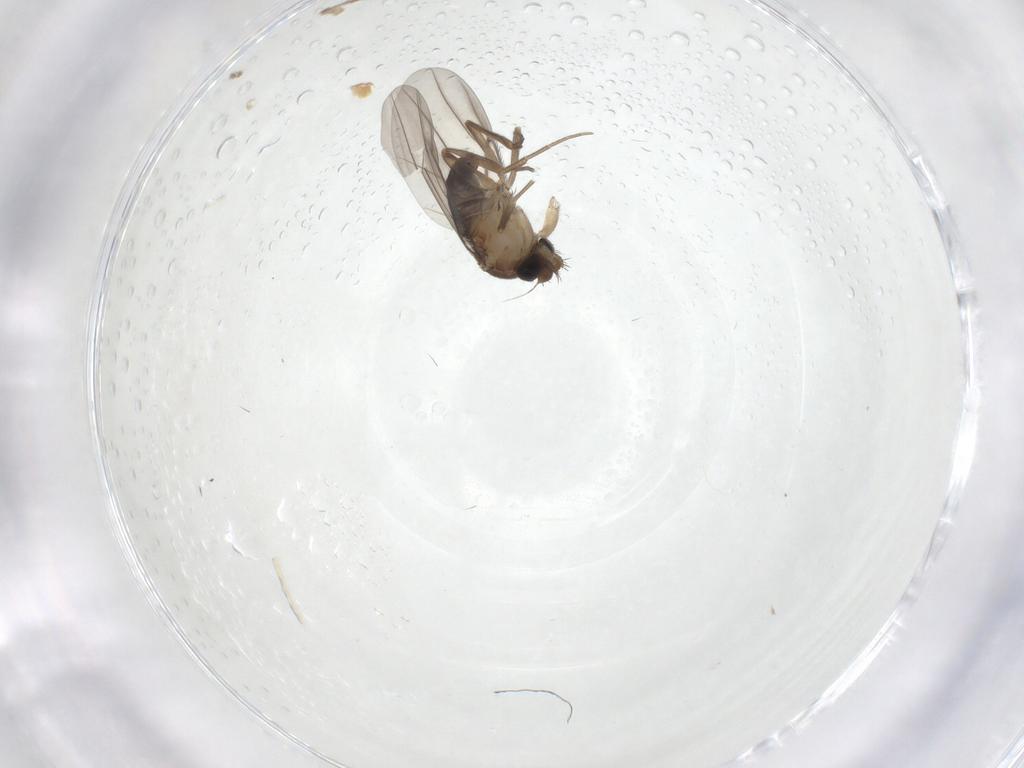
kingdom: Animalia
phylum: Arthropoda
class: Insecta
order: Diptera
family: Phoridae
